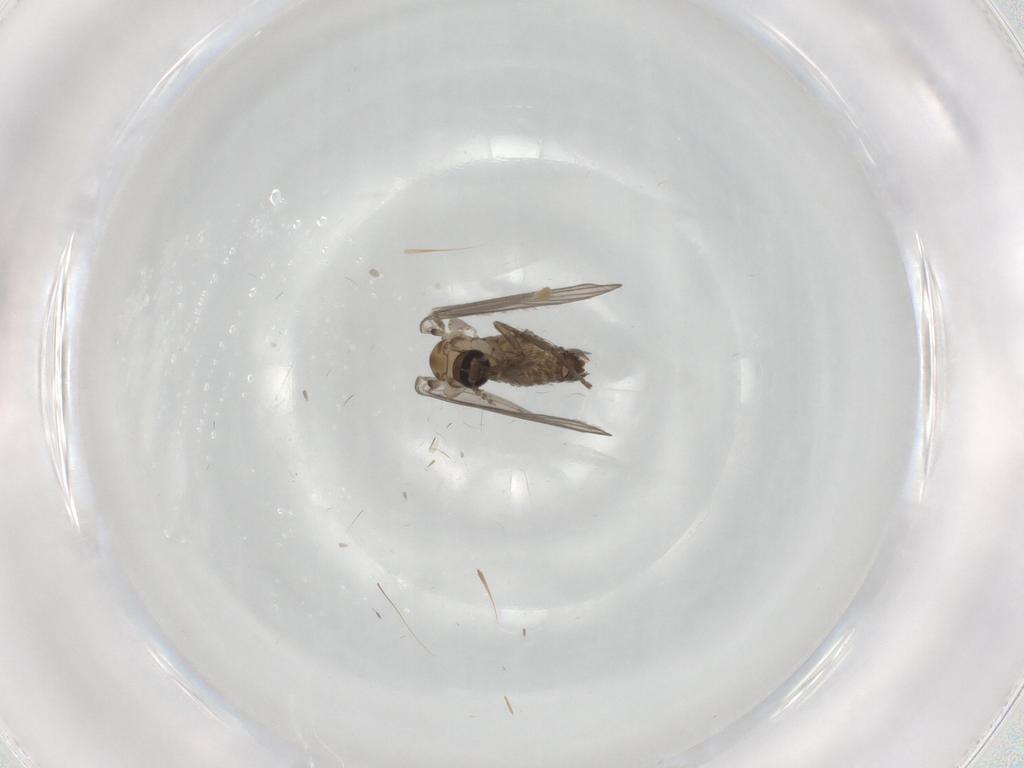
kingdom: Animalia
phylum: Arthropoda
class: Insecta
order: Diptera
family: Psychodidae
